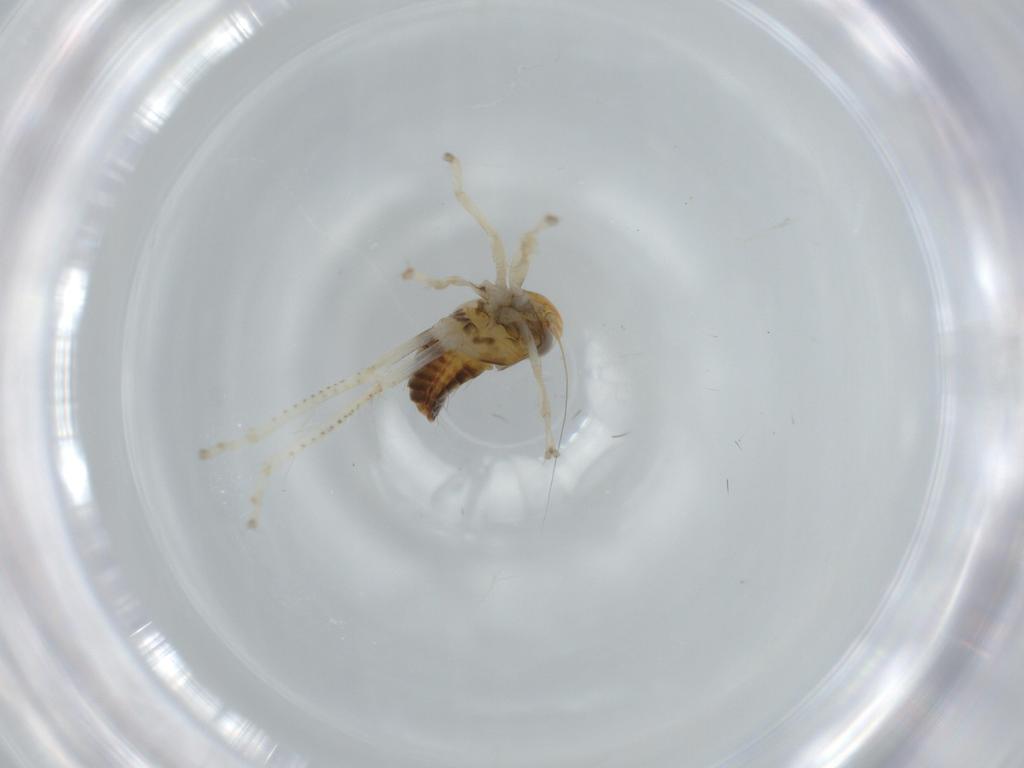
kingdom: Animalia
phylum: Arthropoda
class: Insecta
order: Hemiptera
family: Cicadellidae
